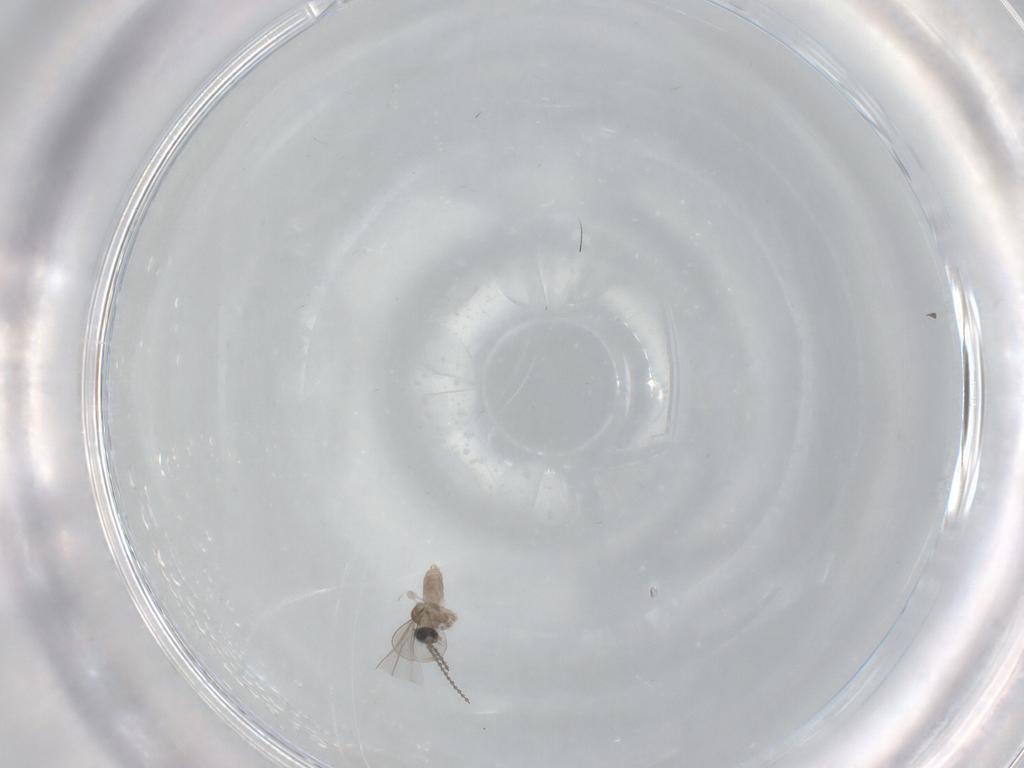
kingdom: Animalia
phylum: Arthropoda
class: Insecta
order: Diptera
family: Cecidomyiidae
